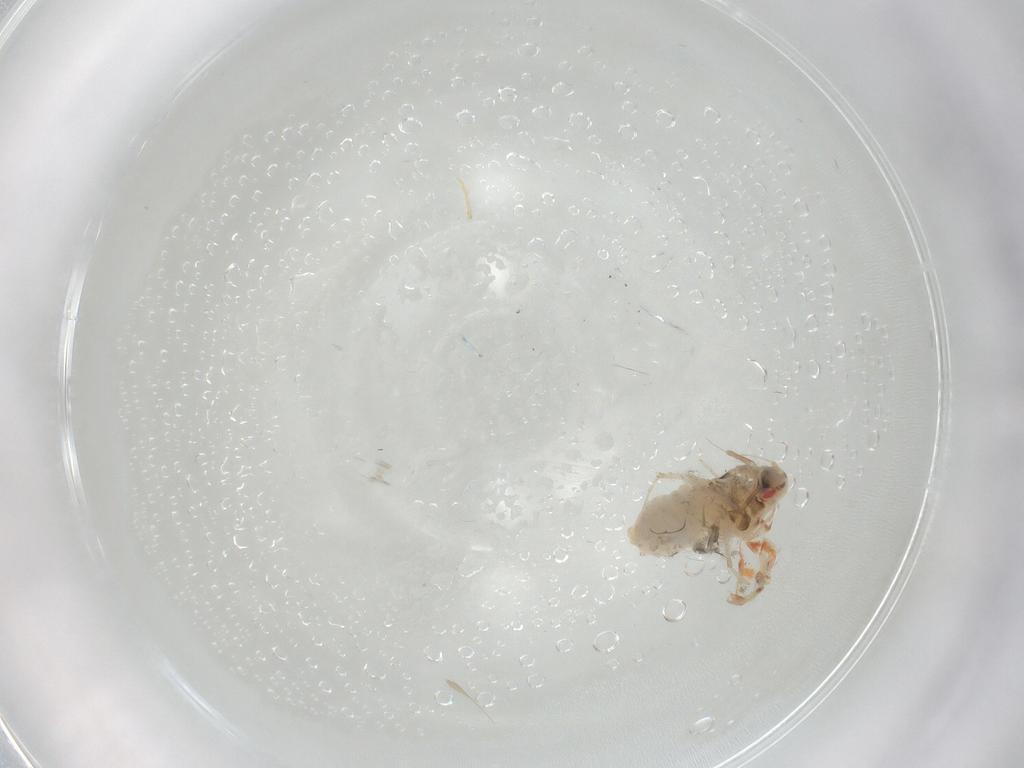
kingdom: Animalia
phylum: Arthropoda
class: Insecta
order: Hemiptera
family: Aleyrodidae
